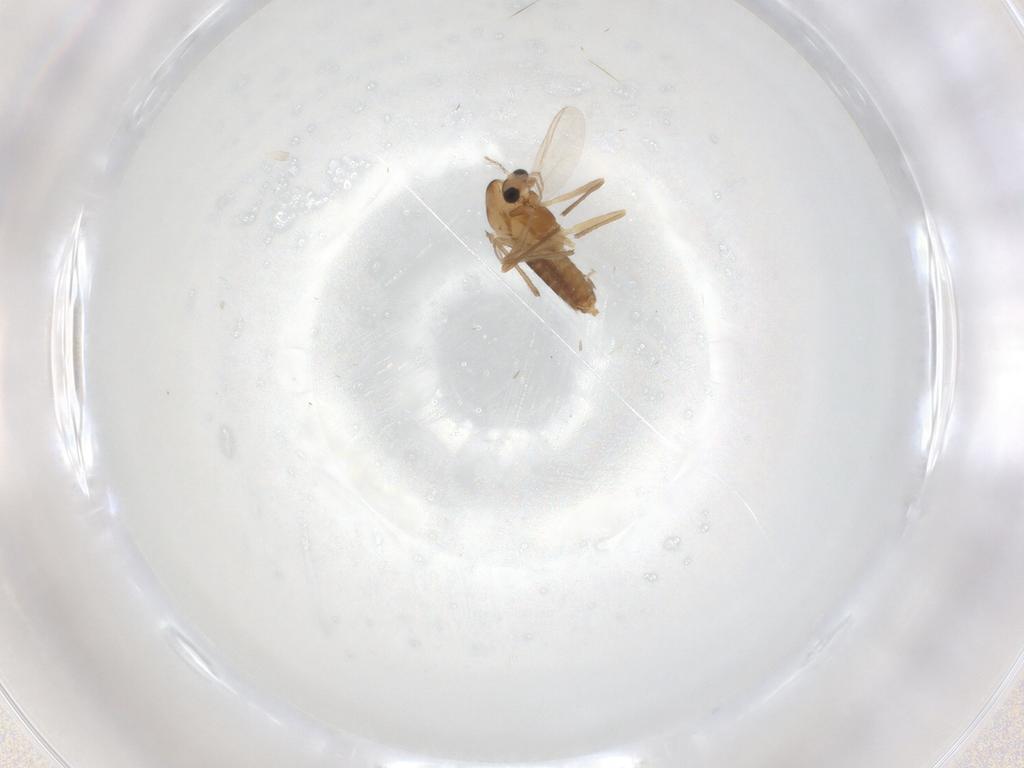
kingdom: Animalia
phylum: Arthropoda
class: Insecta
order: Diptera
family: Chironomidae
